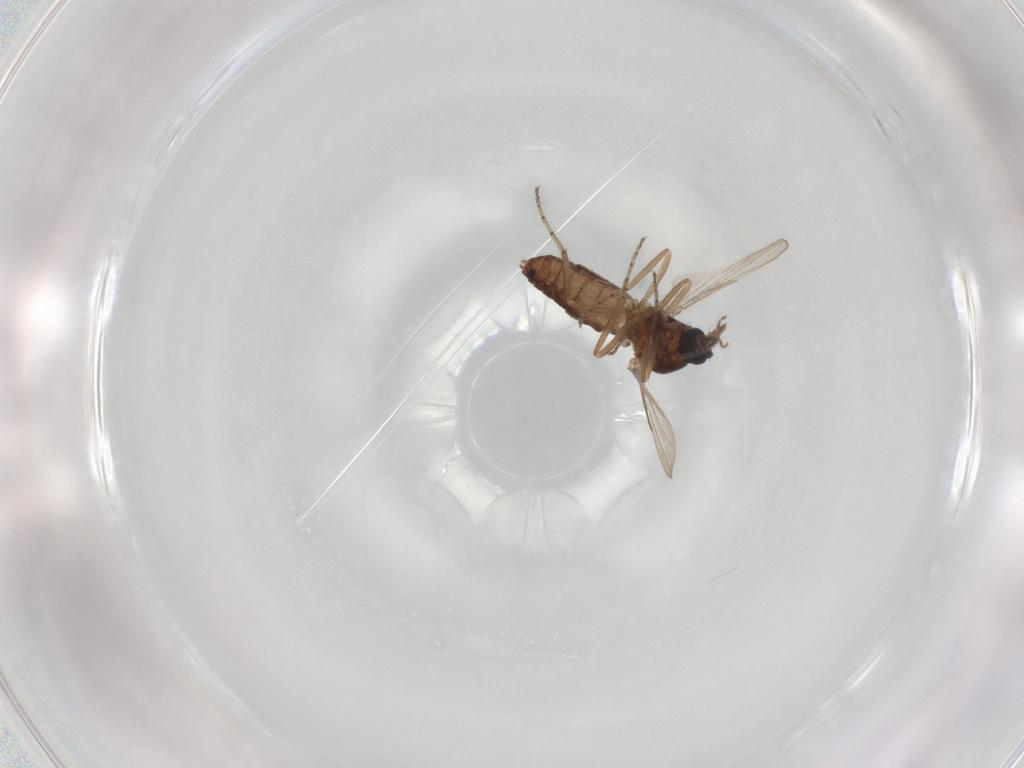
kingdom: Animalia
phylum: Arthropoda
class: Insecta
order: Diptera
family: Ceratopogonidae
